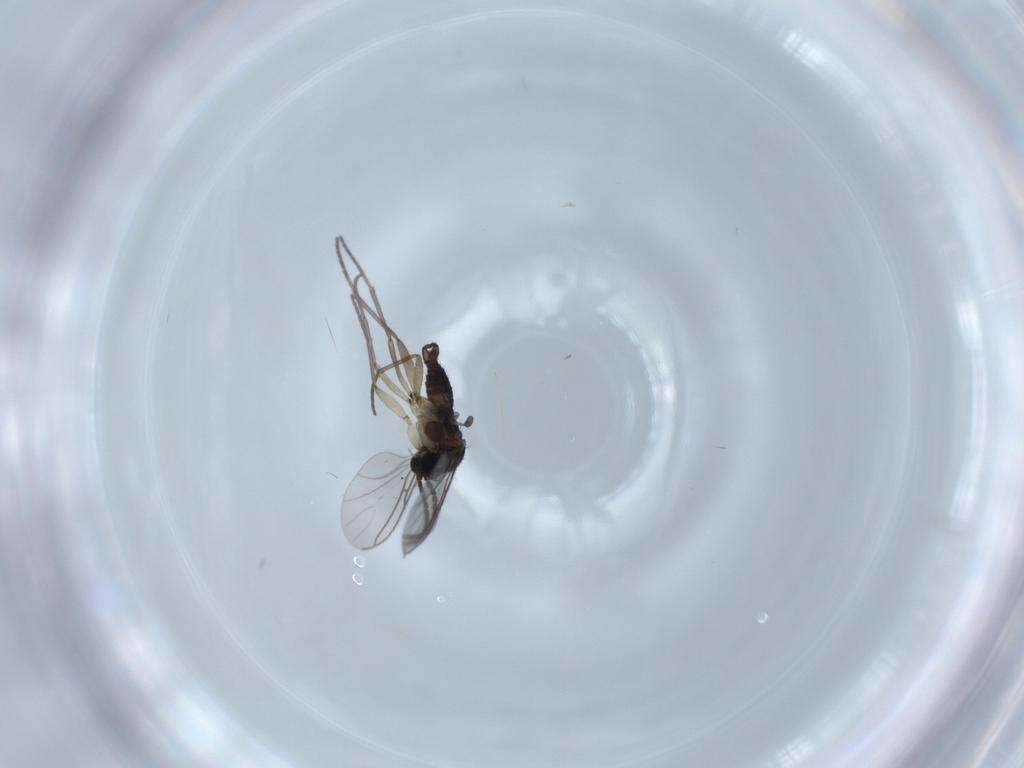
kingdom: Animalia
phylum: Arthropoda
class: Insecta
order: Diptera
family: Sciaridae
